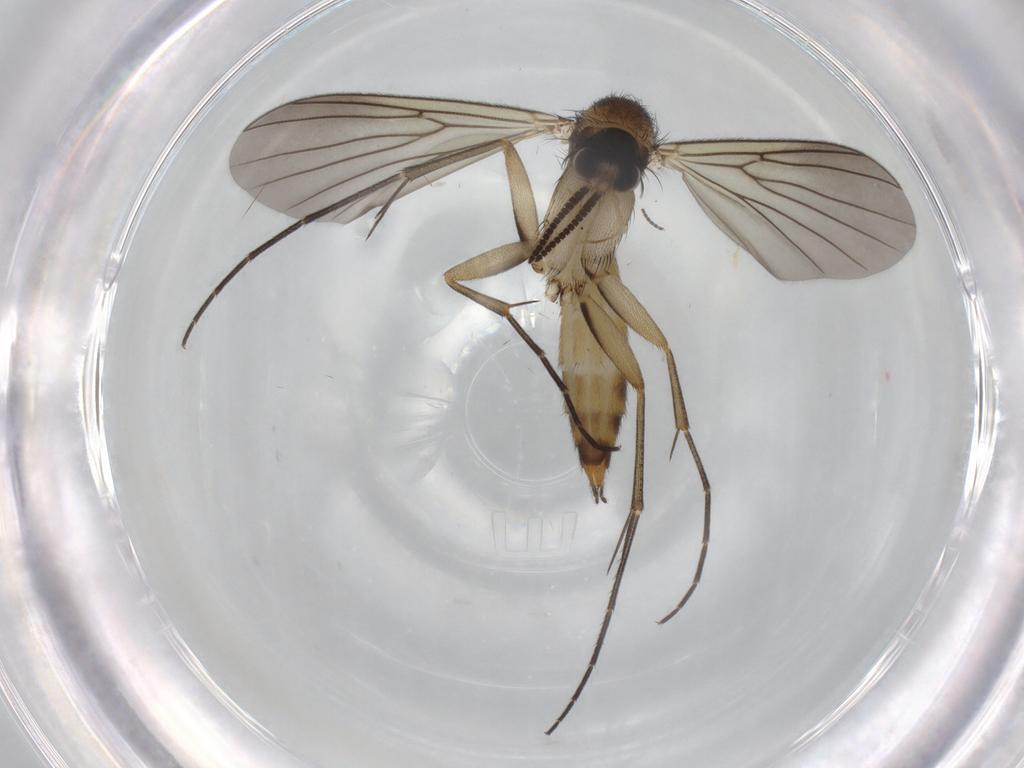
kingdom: Animalia
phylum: Arthropoda
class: Insecta
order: Diptera
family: Mycetophilidae
